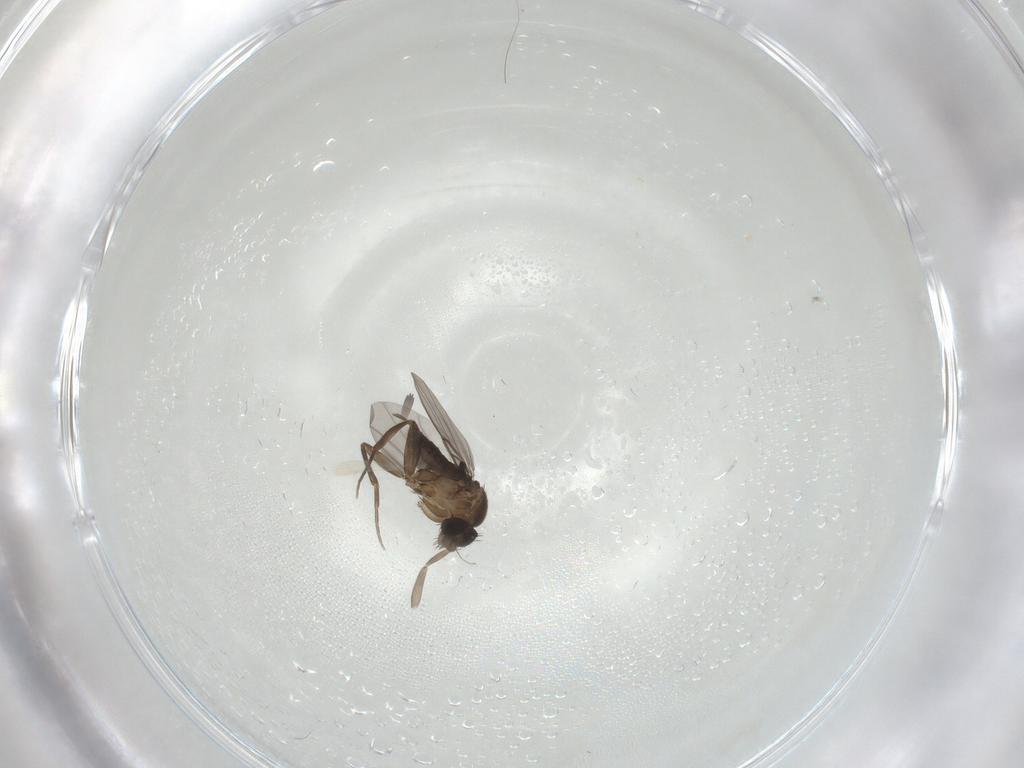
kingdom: Animalia
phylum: Arthropoda
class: Insecta
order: Diptera
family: Phoridae
